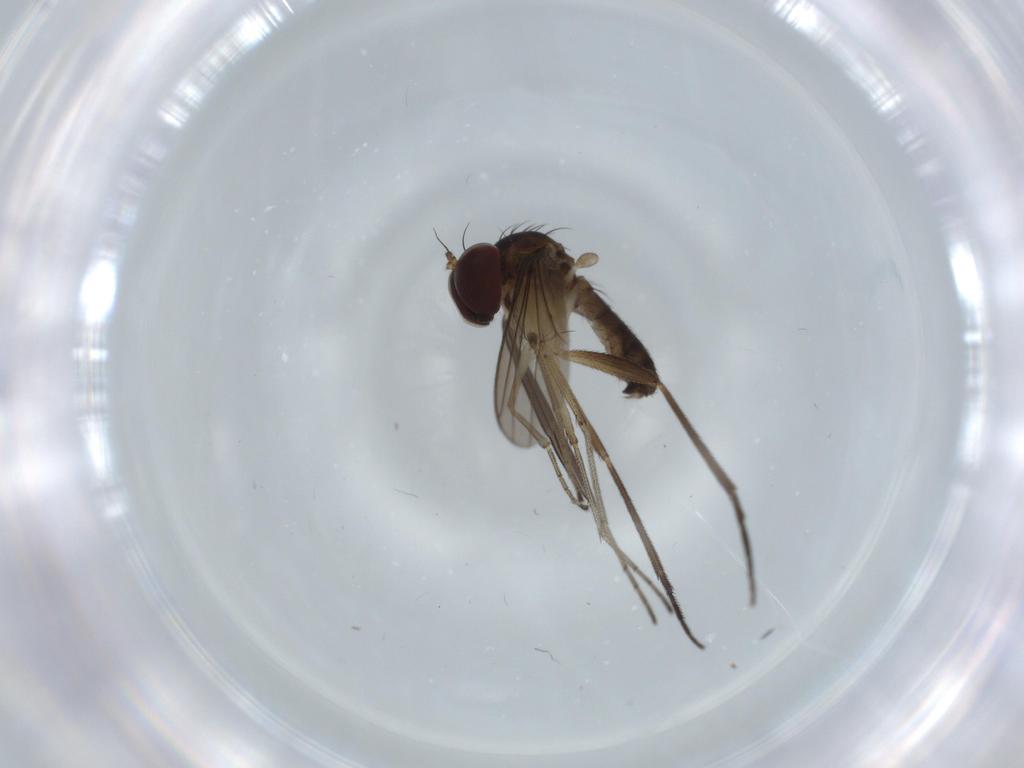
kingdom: Animalia
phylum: Arthropoda
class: Insecta
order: Diptera
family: Dolichopodidae
